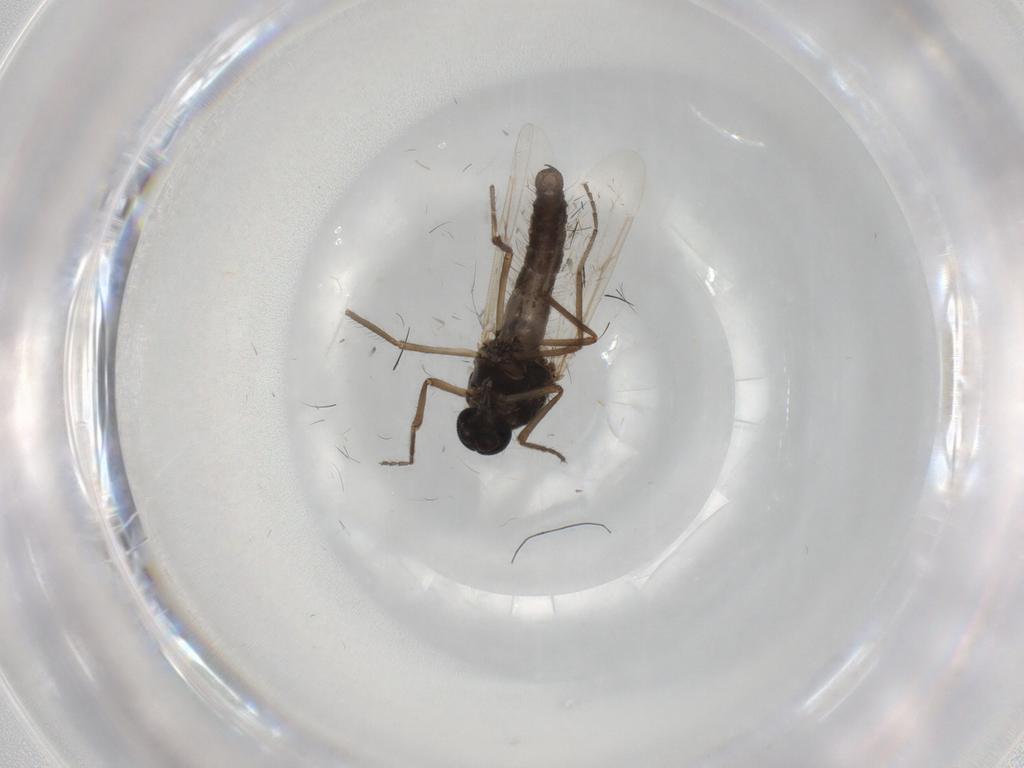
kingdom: Animalia
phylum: Arthropoda
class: Insecta
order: Diptera
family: Ceratopogonidae
